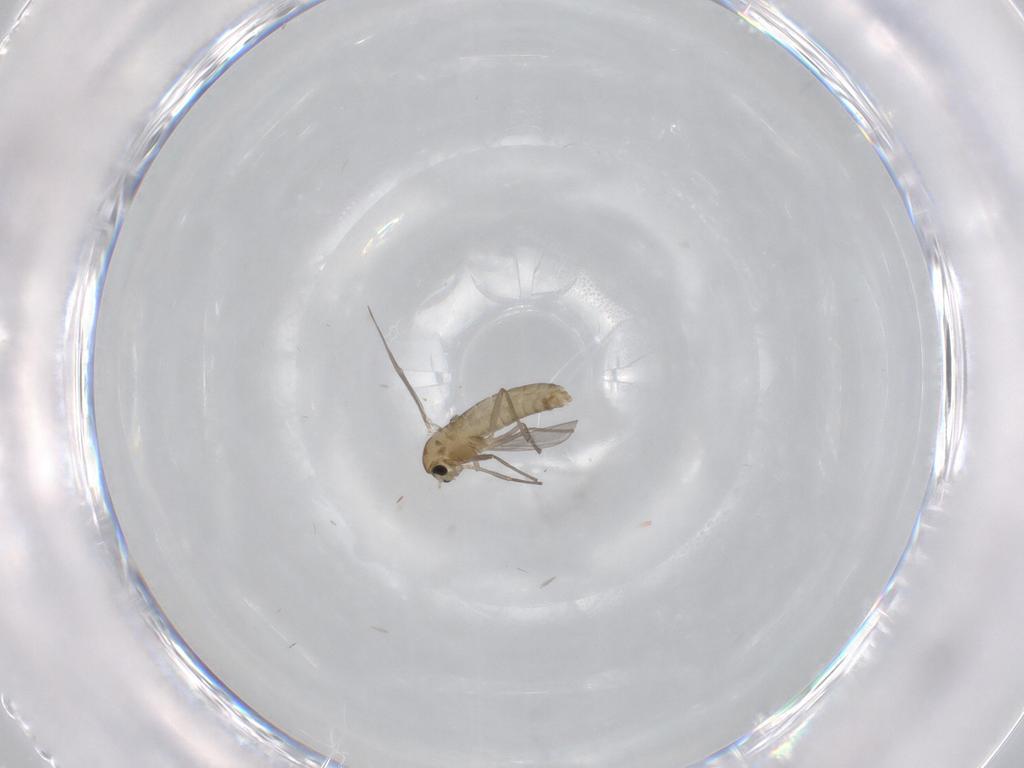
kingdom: Animalia
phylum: Arthropoda
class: Insecta
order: Diptera
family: Chironomidae
